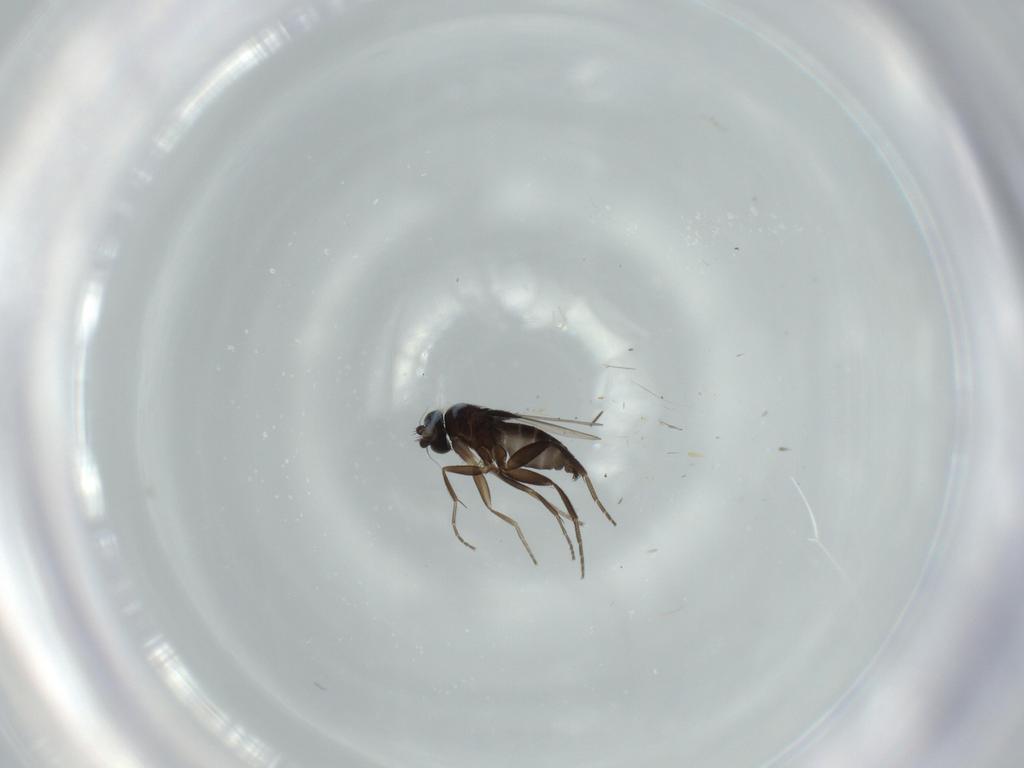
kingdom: Animalia
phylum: Arthropoda
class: Insecta
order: Diptera
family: Phoridae
